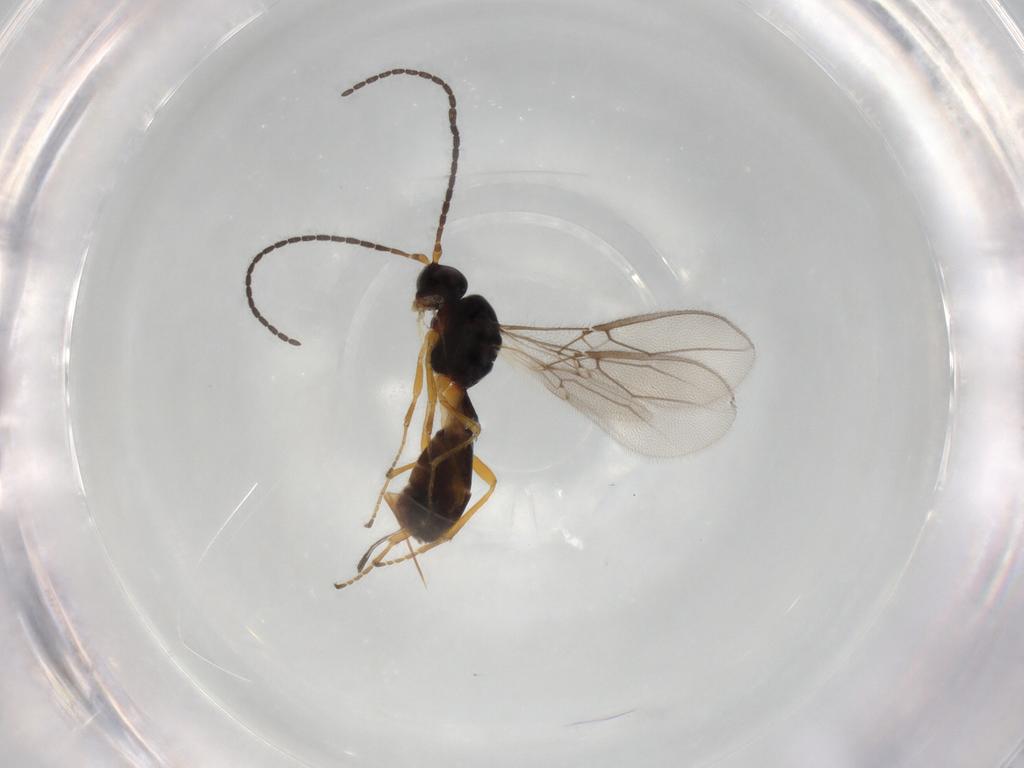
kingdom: Animalia
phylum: Arthropoda
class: Insecta
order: Hymenoptera
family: Braconidae
